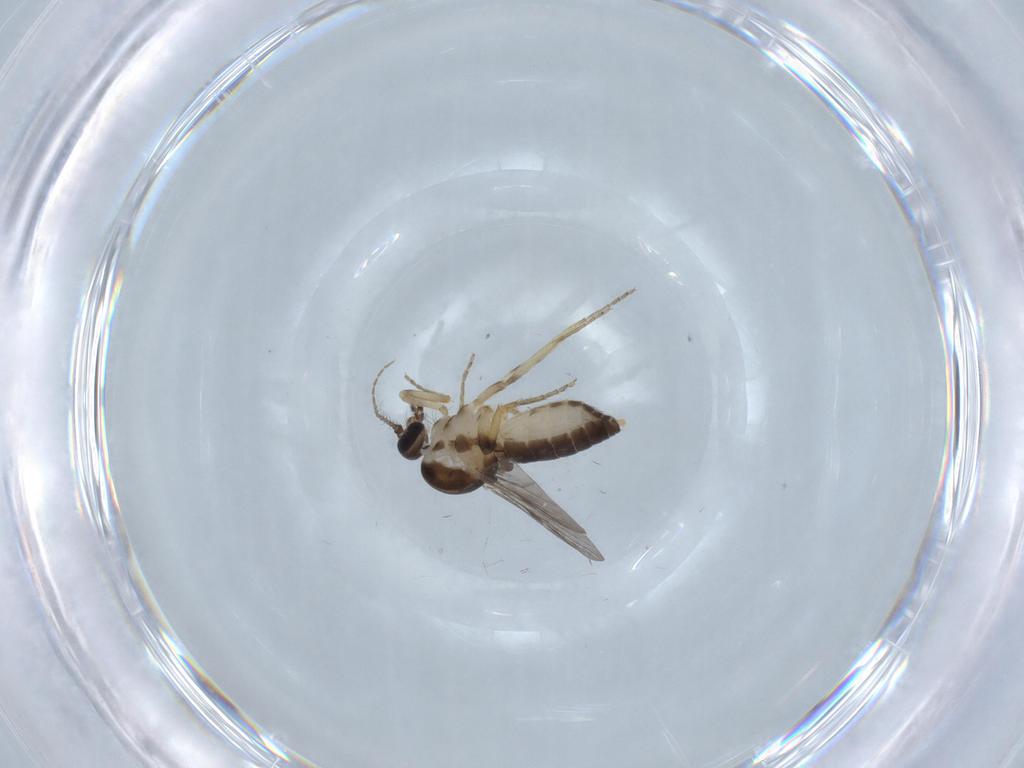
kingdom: Animalia
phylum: Arthropoda
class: Insecta
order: Diptera
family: Ceratopogonidae
